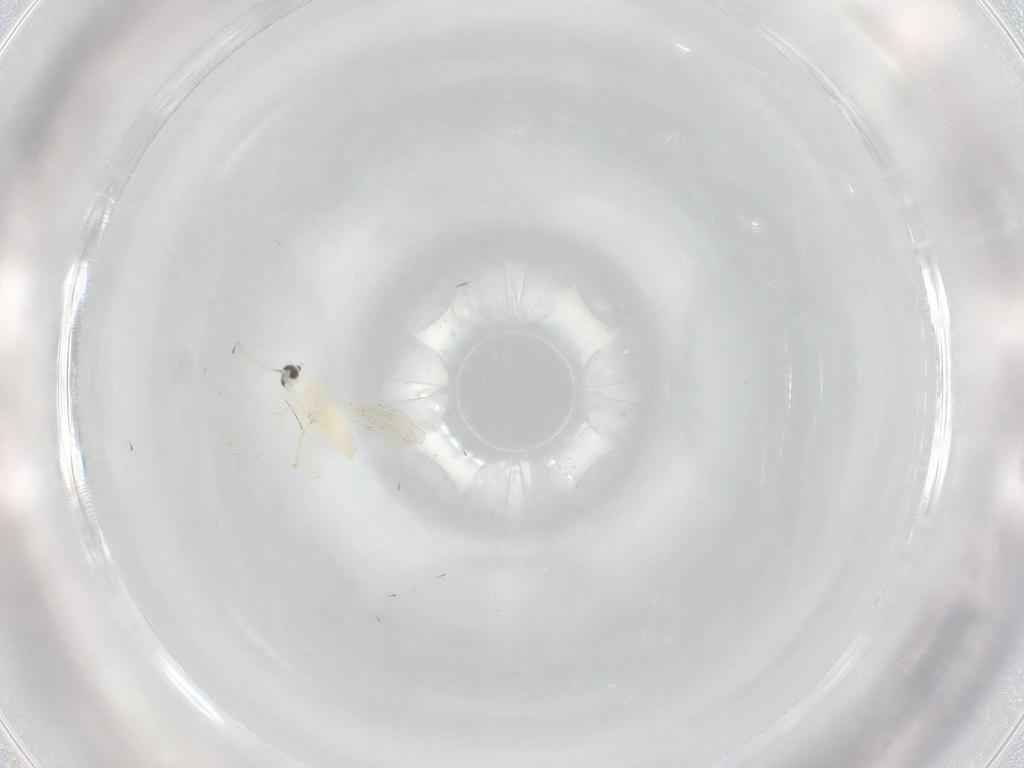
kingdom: Animalia
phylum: Arthropoda
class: Insecta
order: Diptera
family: Cecidomyiidae
